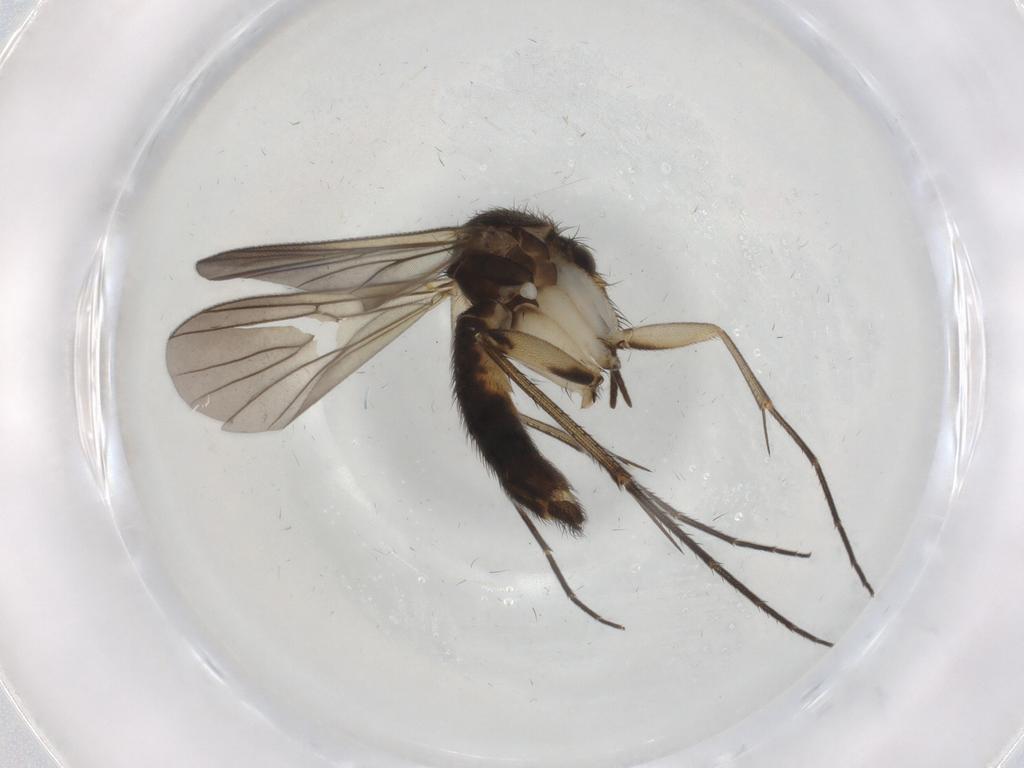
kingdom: Animalia
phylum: Arthropoda
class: Insecta
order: Diptera
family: Mycetophilidae
